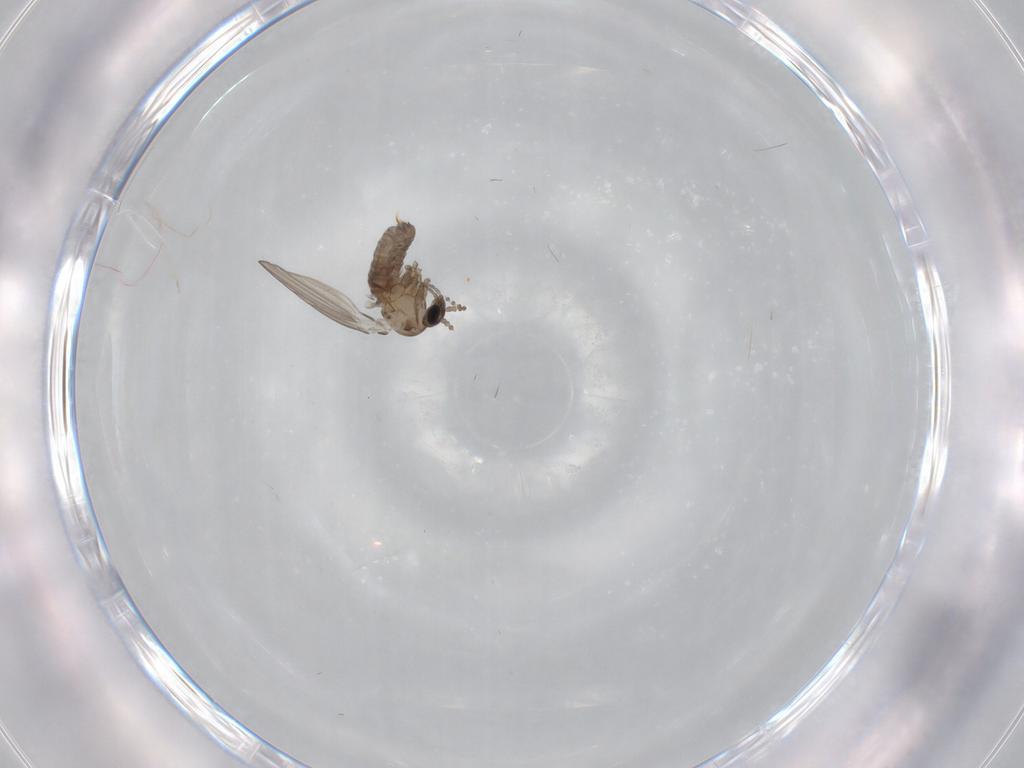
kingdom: Animalia
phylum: Arthropoda
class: Insecta
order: Diptera
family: Psychodidae
